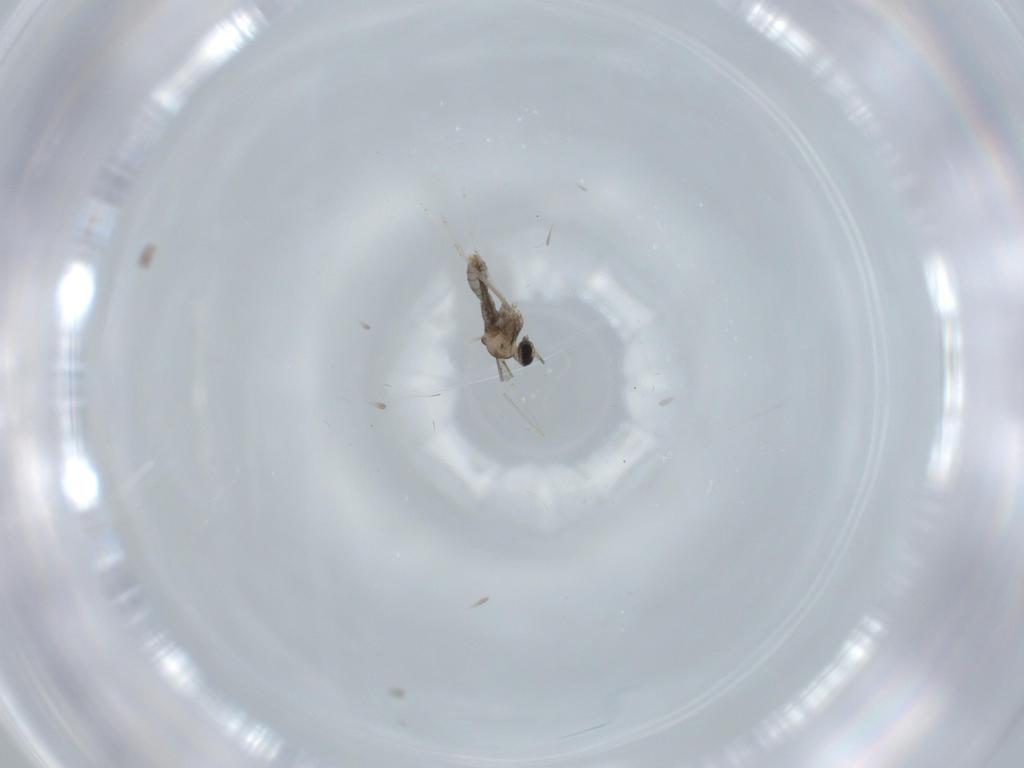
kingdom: Animalia
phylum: Arthropoda
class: Insecta
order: Diptera
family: Cecidomyiidae
